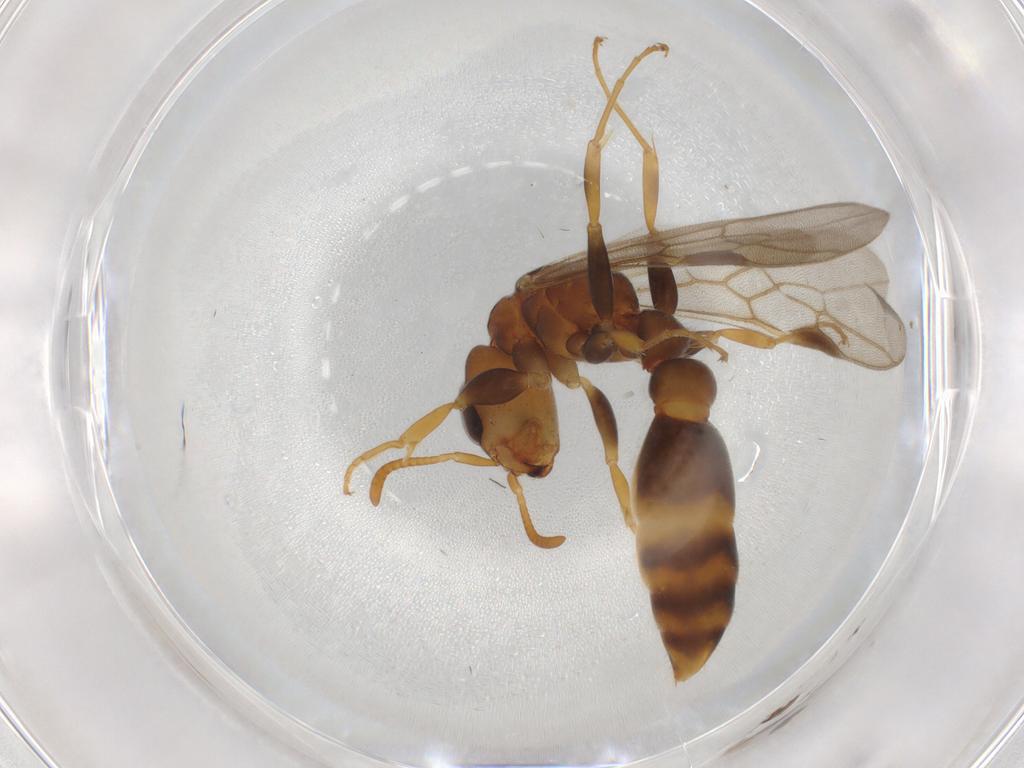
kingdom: Animalia
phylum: Arthropoda
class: Insecta
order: Hymenoptera
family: Formicidae
